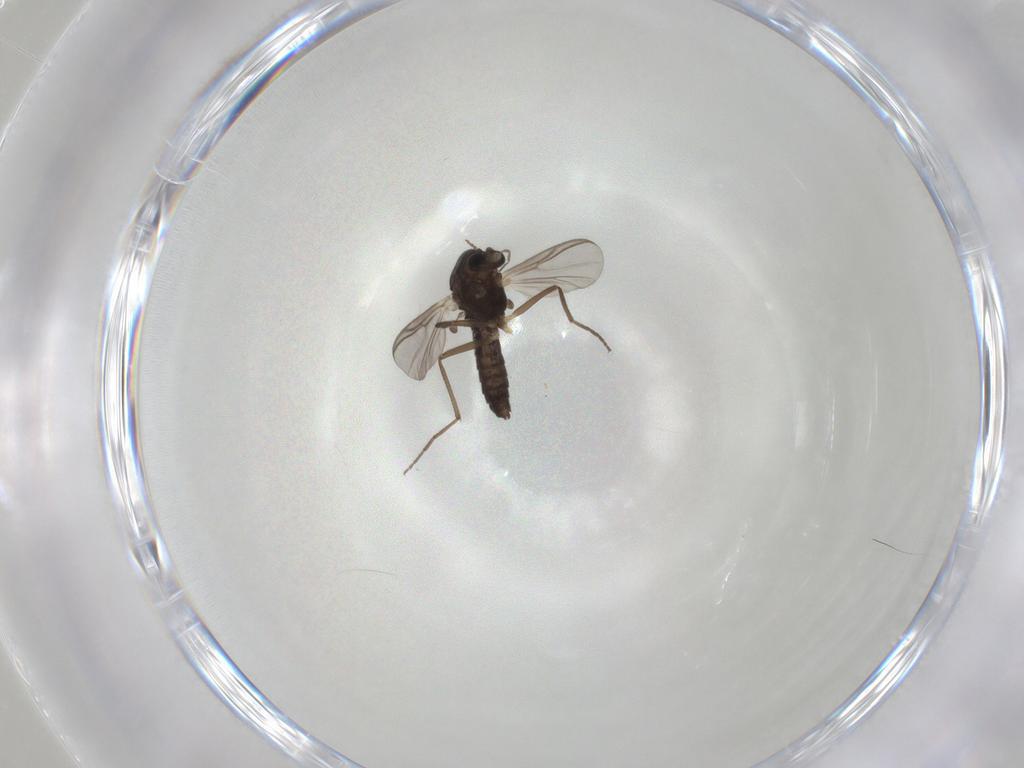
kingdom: Animalia
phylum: Arthropoda
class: Insecta
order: Diptera
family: Chironomidae
